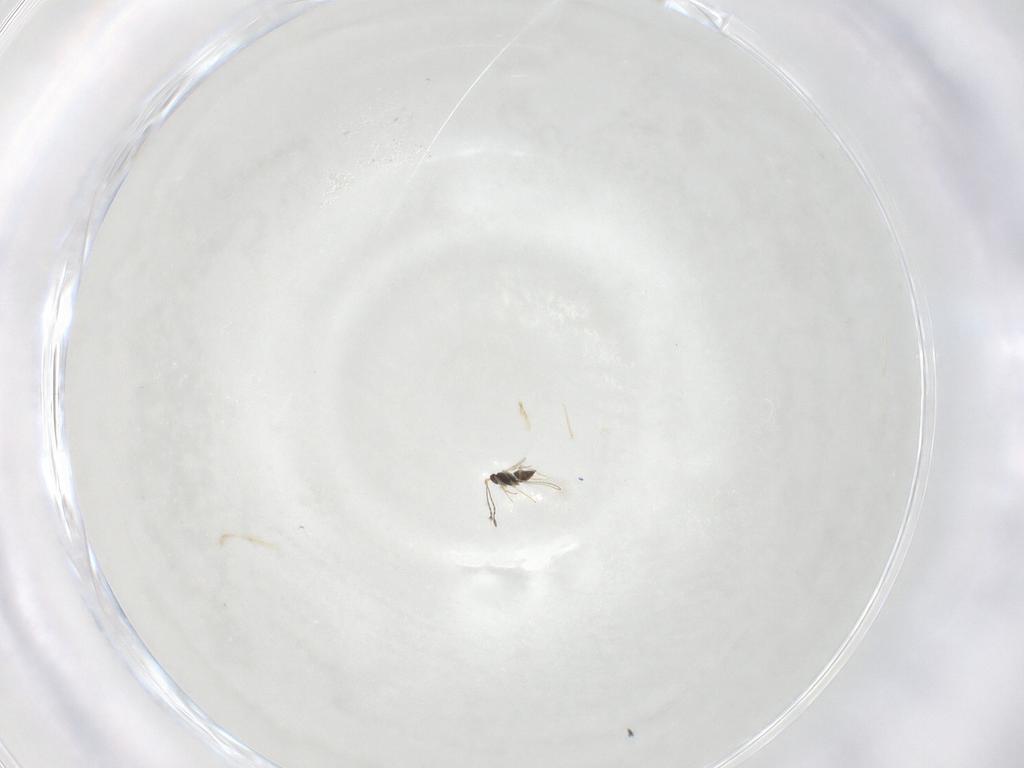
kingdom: Animalia
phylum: Arthropoda
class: Insecta
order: Hymenoptera
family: Mymaridae
